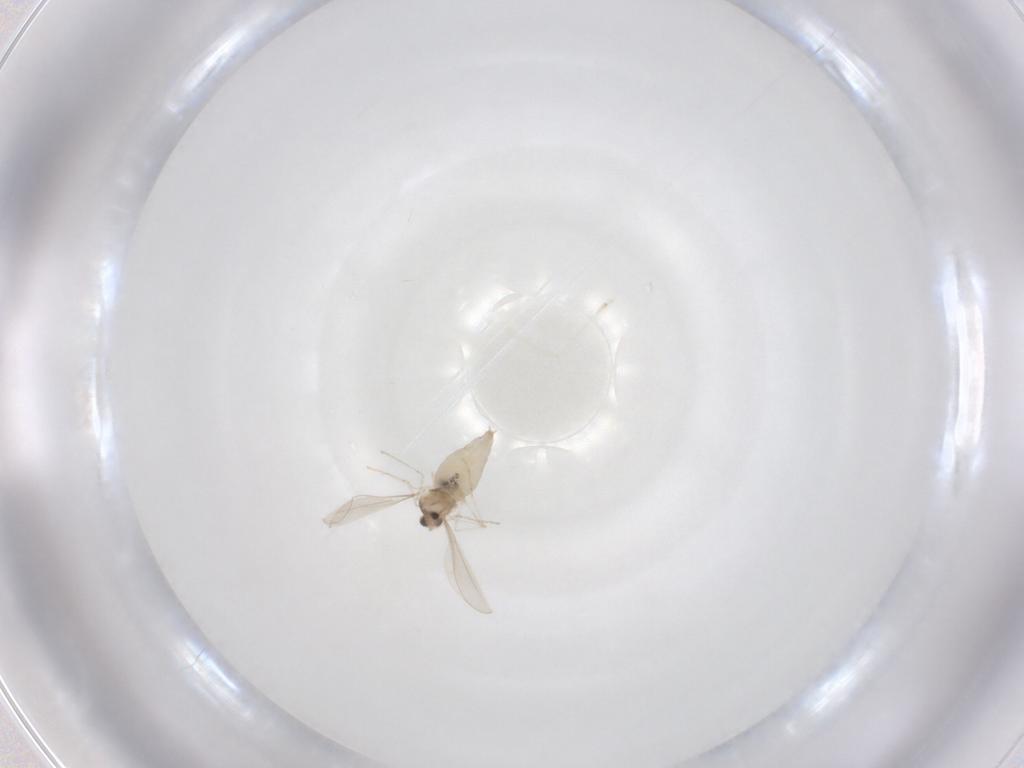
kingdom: Animalia
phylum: Arthropoda
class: Insecta
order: Diptera
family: Cecidomyiidae
